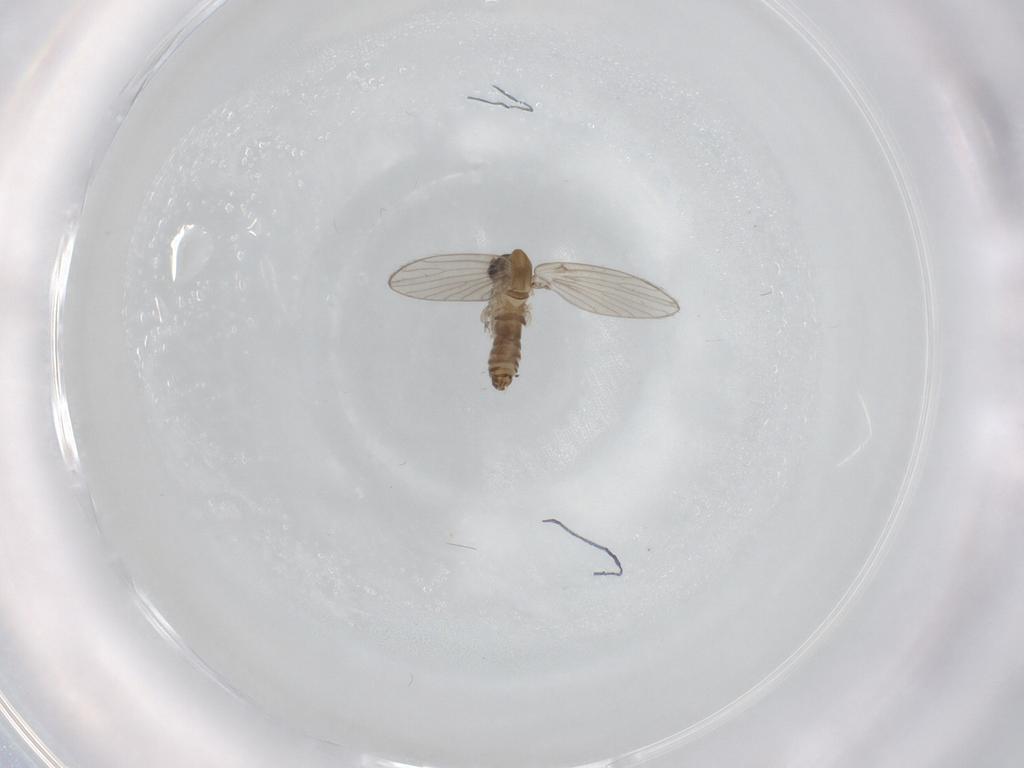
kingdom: Animalia
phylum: Arthropoda
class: Insecta
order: Diptera
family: Psychodidae
